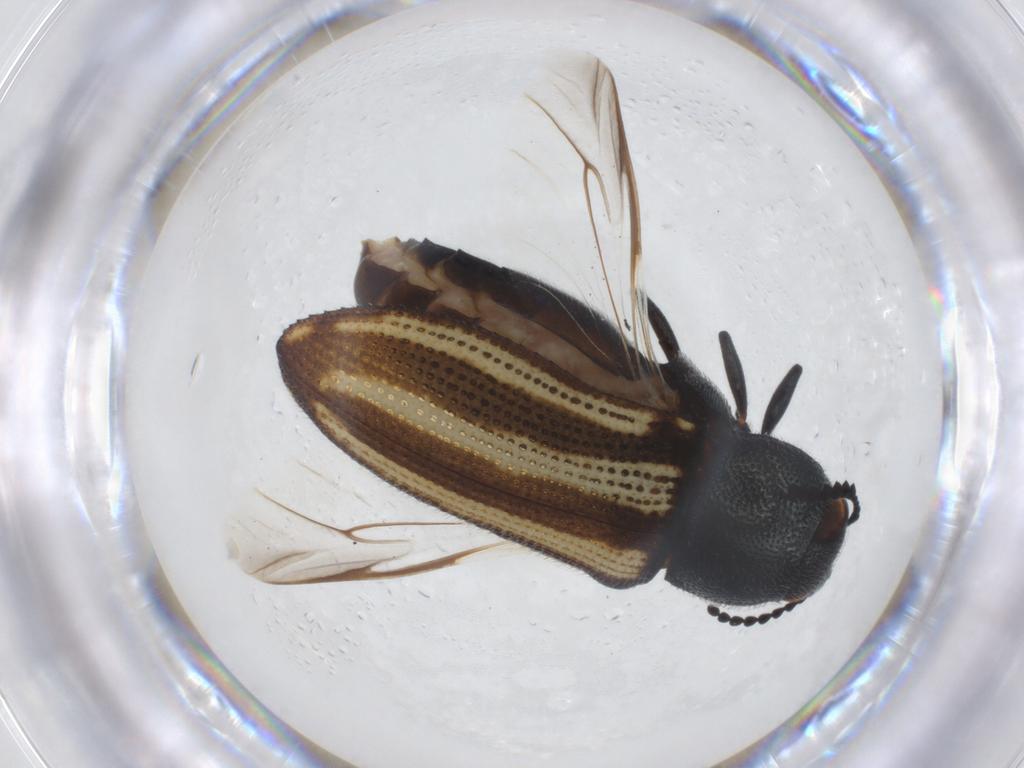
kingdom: Animalia
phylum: Arthropoda
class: Insecta
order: Coleoptera
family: Buprestidae
